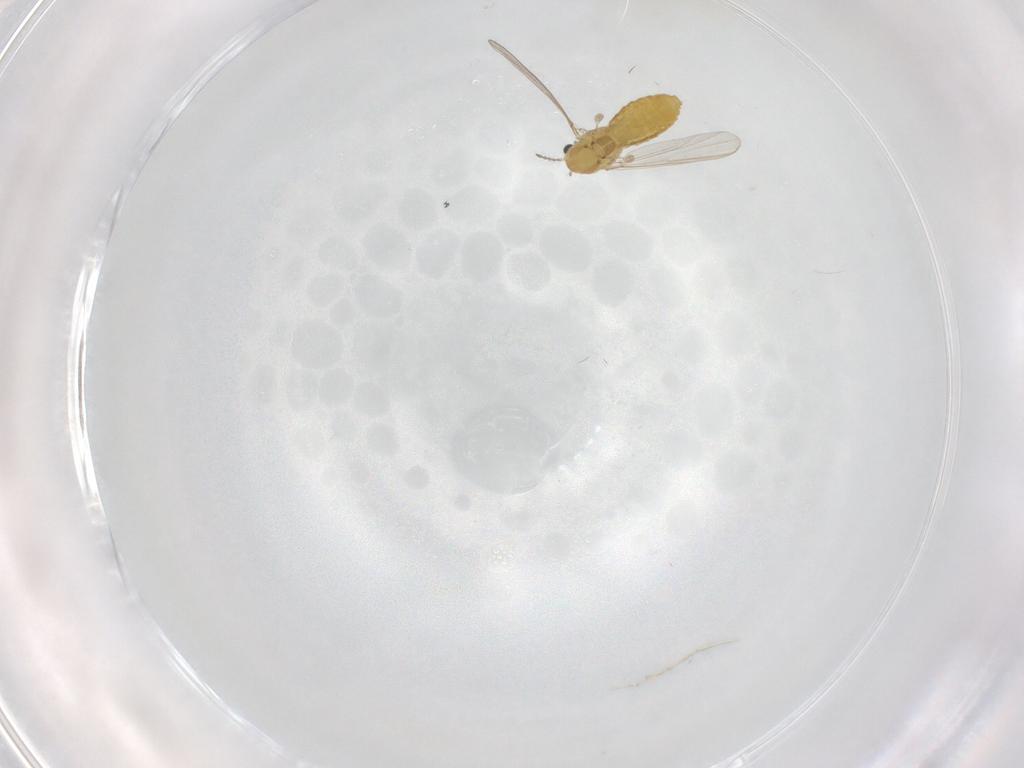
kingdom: Animalia
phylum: Arthropoda
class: Insecta
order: Diptera
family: Chironomidae
